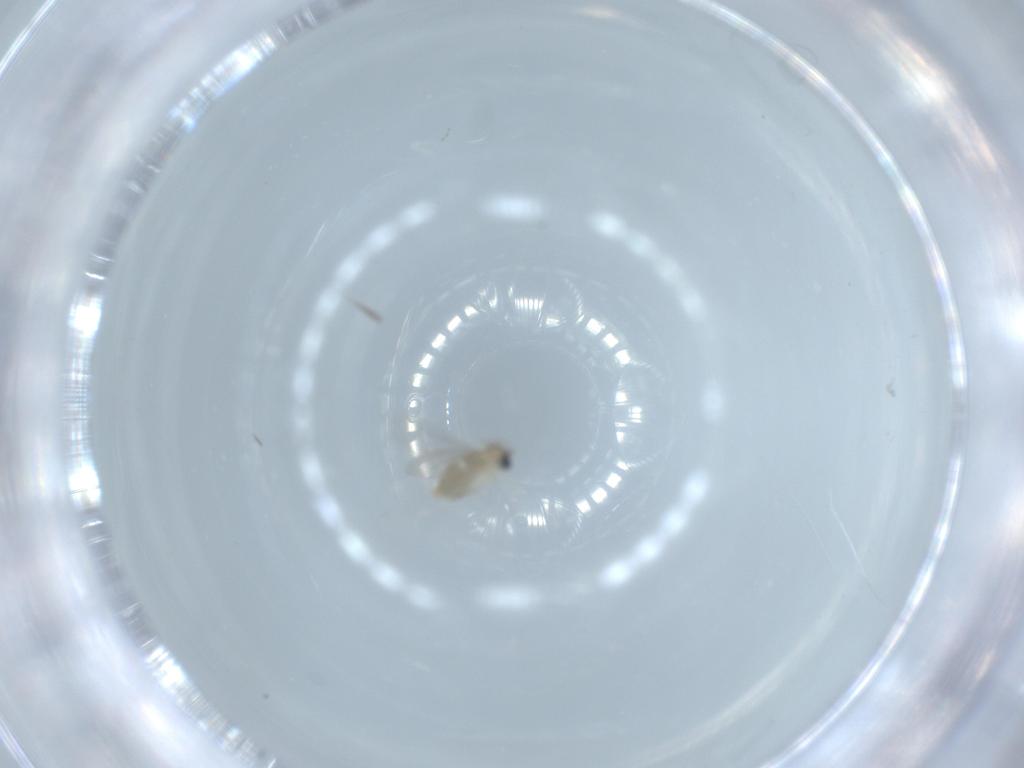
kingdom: Animalia
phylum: Arthropoda
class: Insecta
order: Diptera
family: Cecidomyiidae
